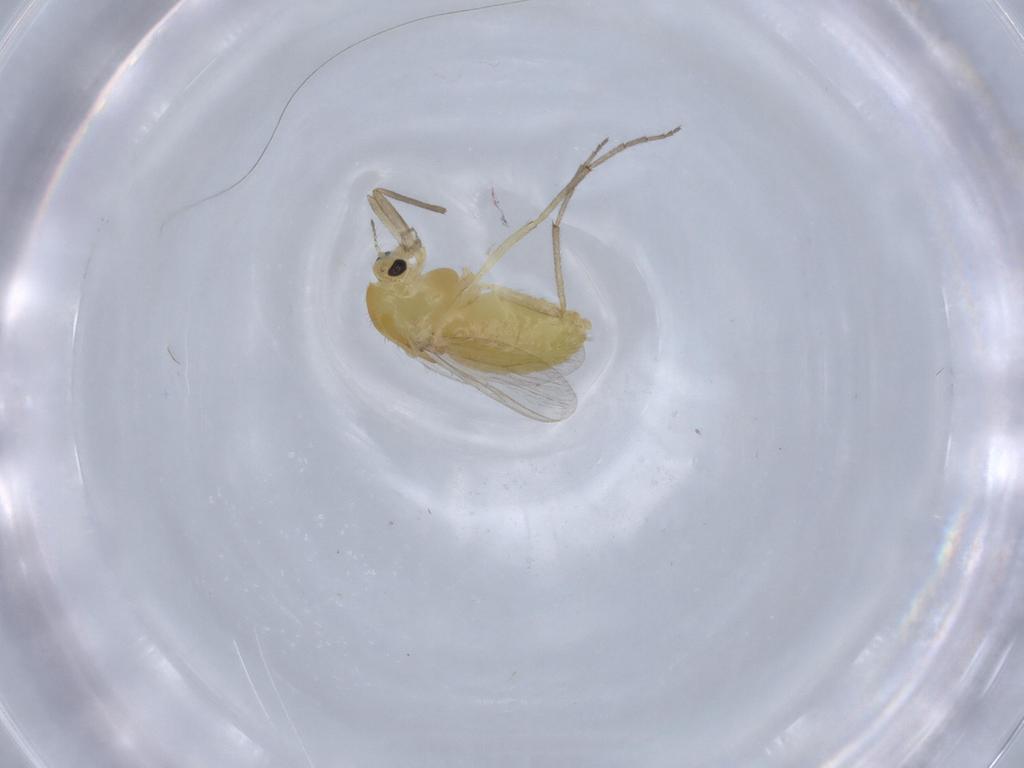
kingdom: Animalia
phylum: Arthropoda
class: Insecta
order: Diptera
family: Chironomidae
